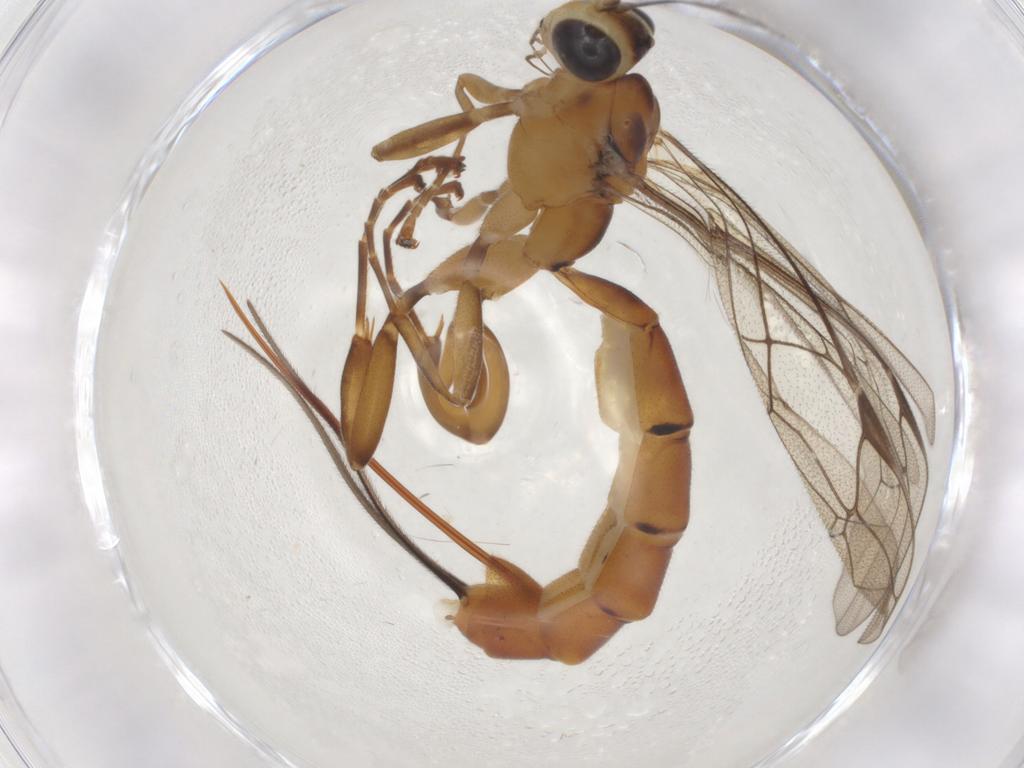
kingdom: Animalia
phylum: Arthropoda
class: Insecta
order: Hymenoptera
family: Ichneumonidae
